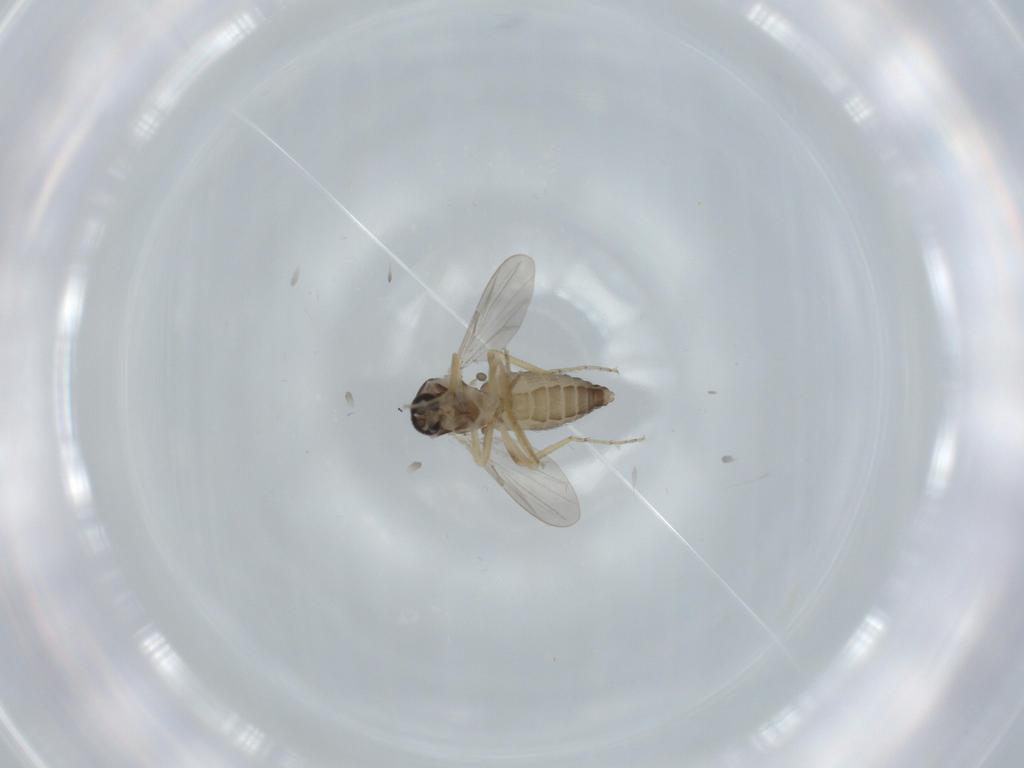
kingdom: Animalia
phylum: Arthropoda
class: Insecta
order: Diptera
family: Ceratopogonidae
